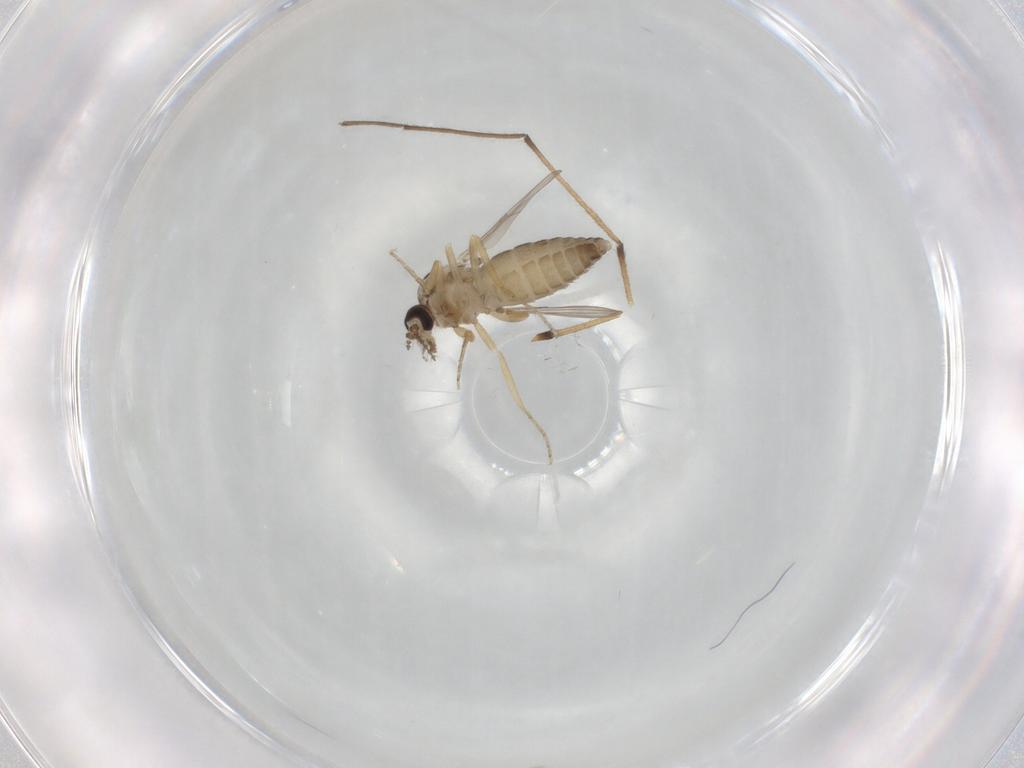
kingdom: Animalia
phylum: Arthropoda
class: Insecta
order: Diptera
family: Ceratopogonidae
